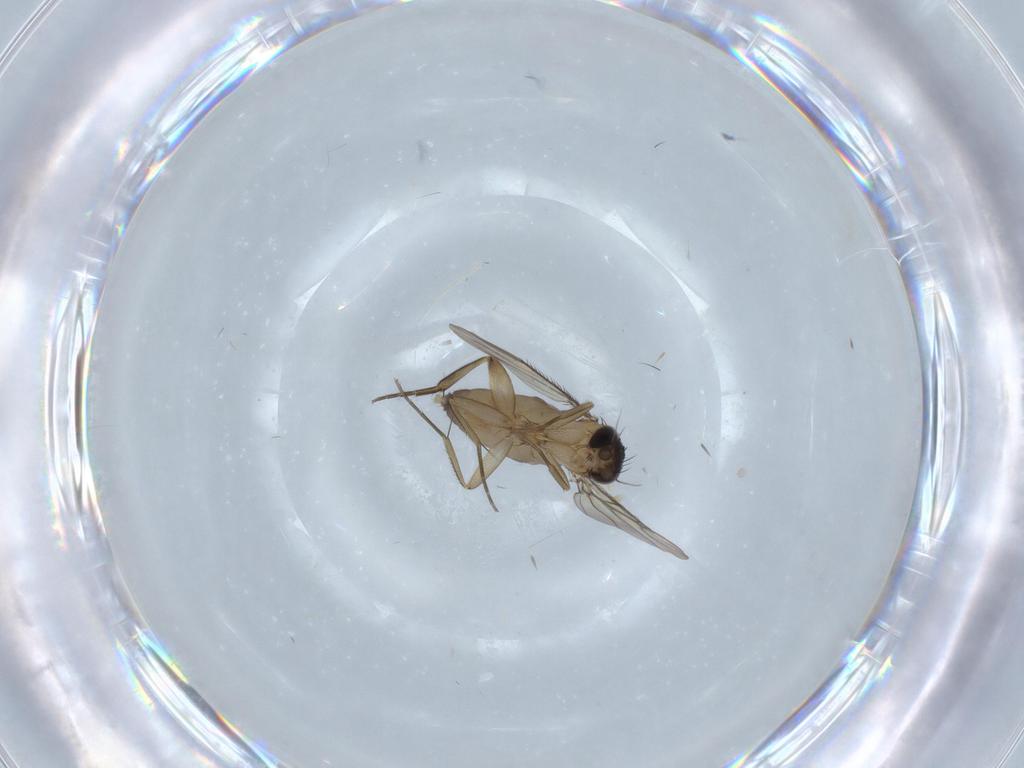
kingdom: Animalia
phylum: Arthropoda
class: Insecta
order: Diptera
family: Phoridae
